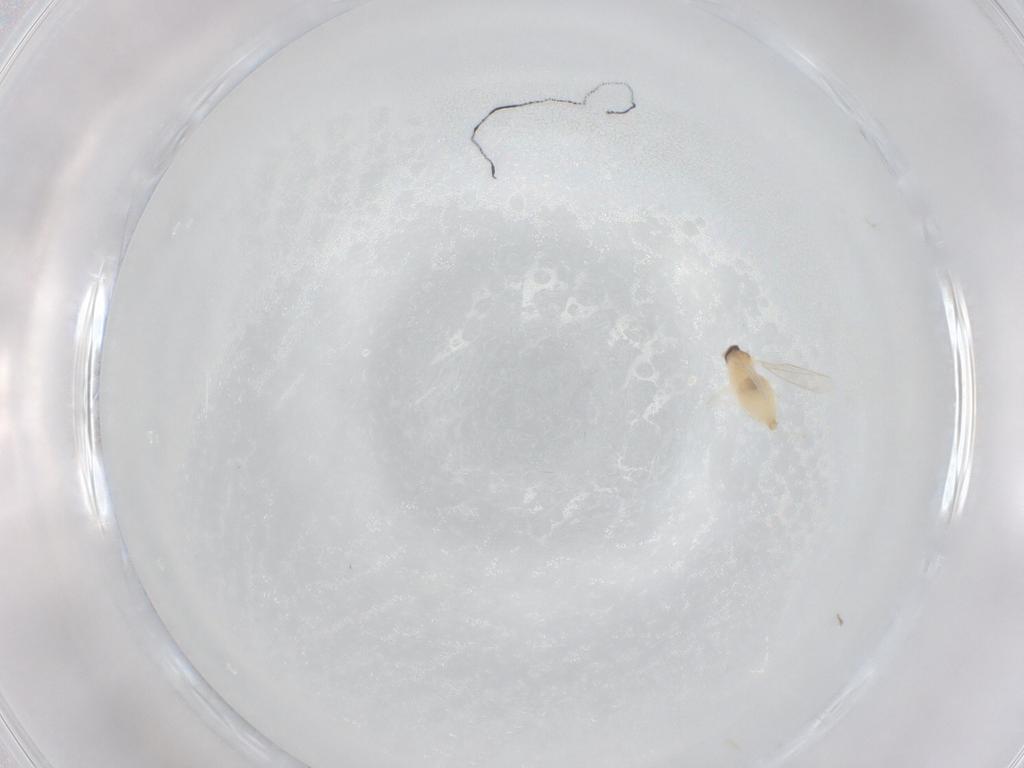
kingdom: Animalia
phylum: Arthropoda
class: Insecta
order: Diptera
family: Cecidomyiidae
